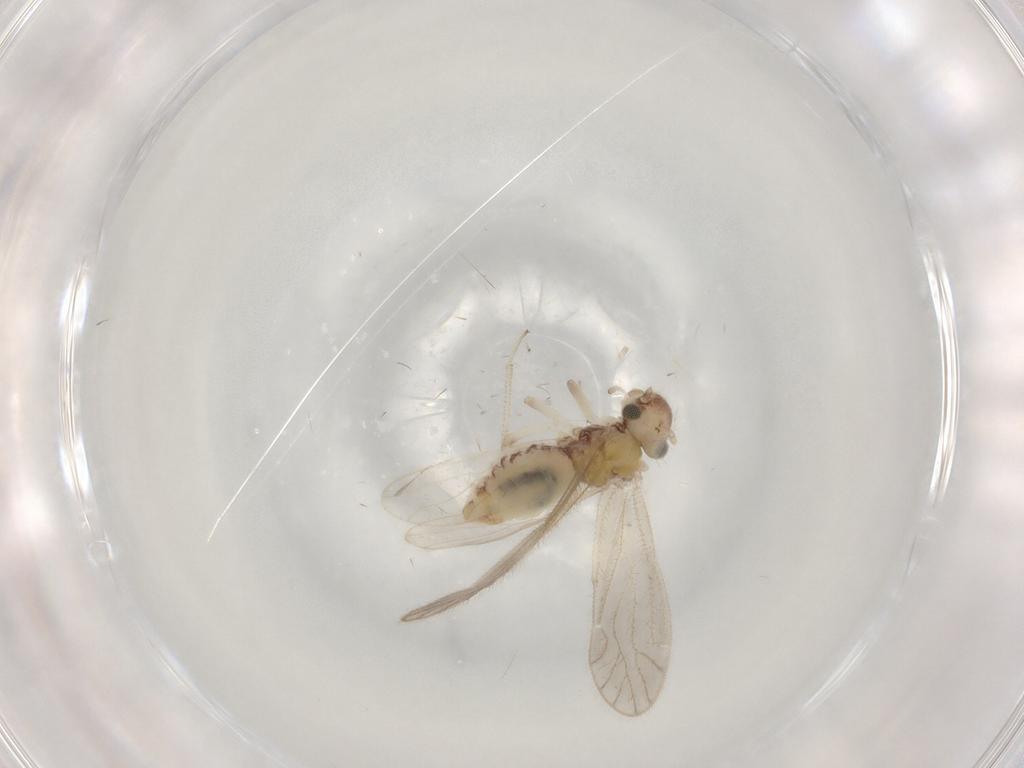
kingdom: Animalia
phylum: Arthropoda
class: Insecta
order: Psocodea
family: Peripsocidae
